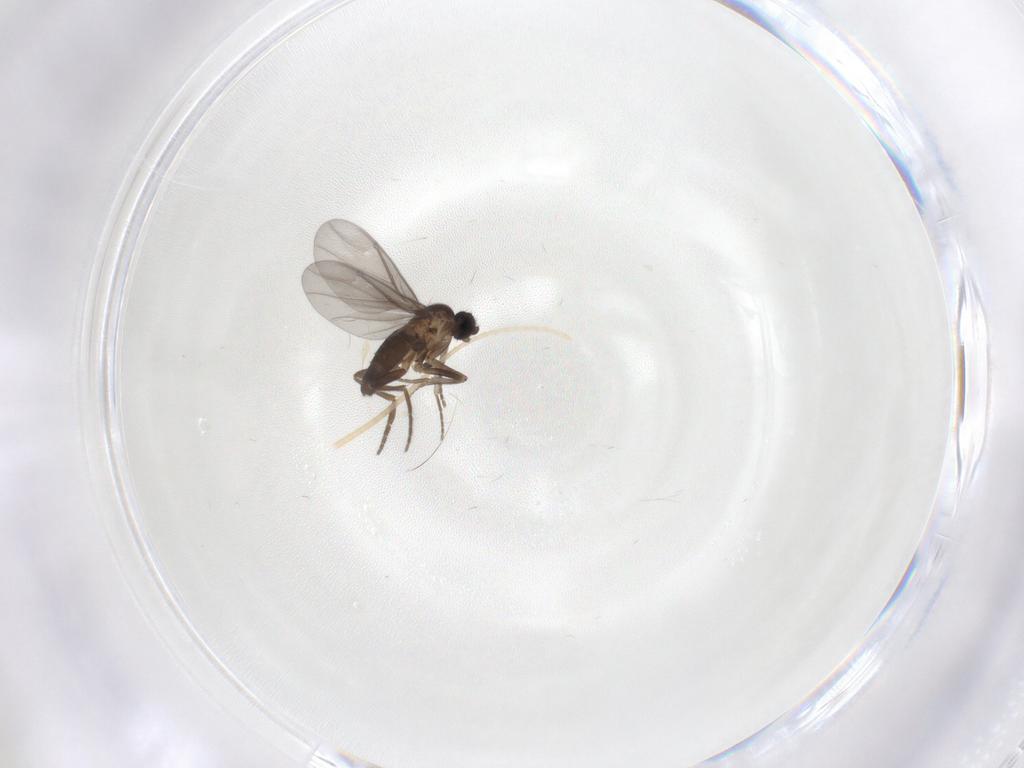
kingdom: Animalia
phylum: Arthropoda
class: Insecta
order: Diptera
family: Phoridae
